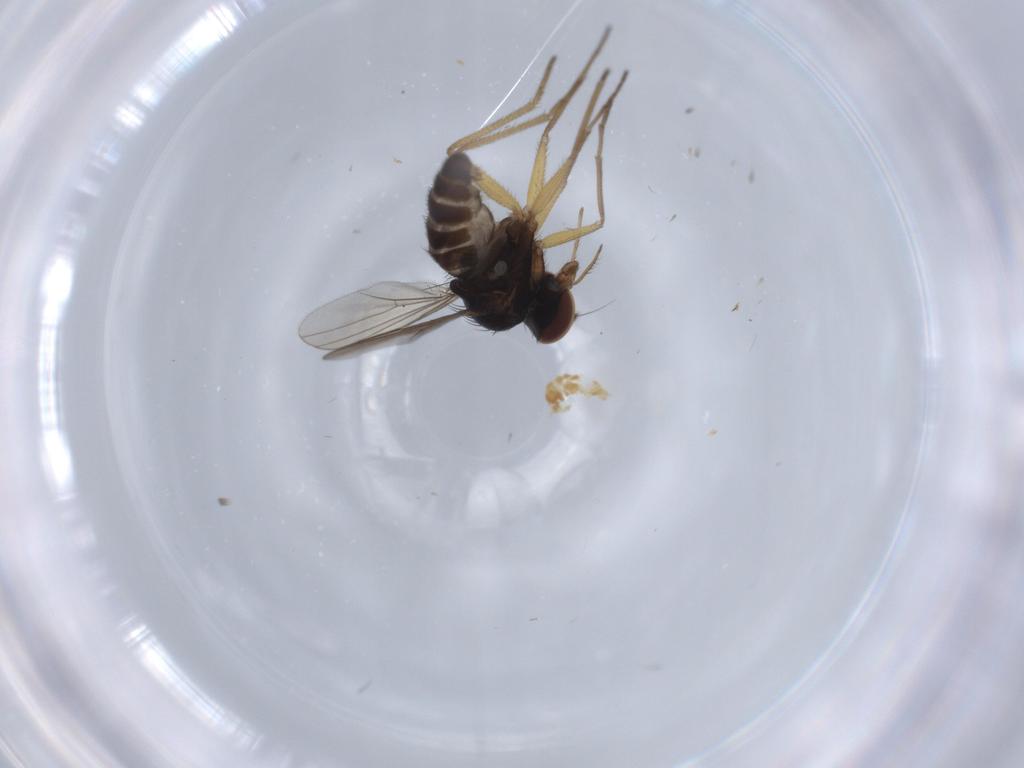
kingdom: Animalia
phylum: Arthropoda
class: Insecta
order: Diptera
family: Dolichopodidae
